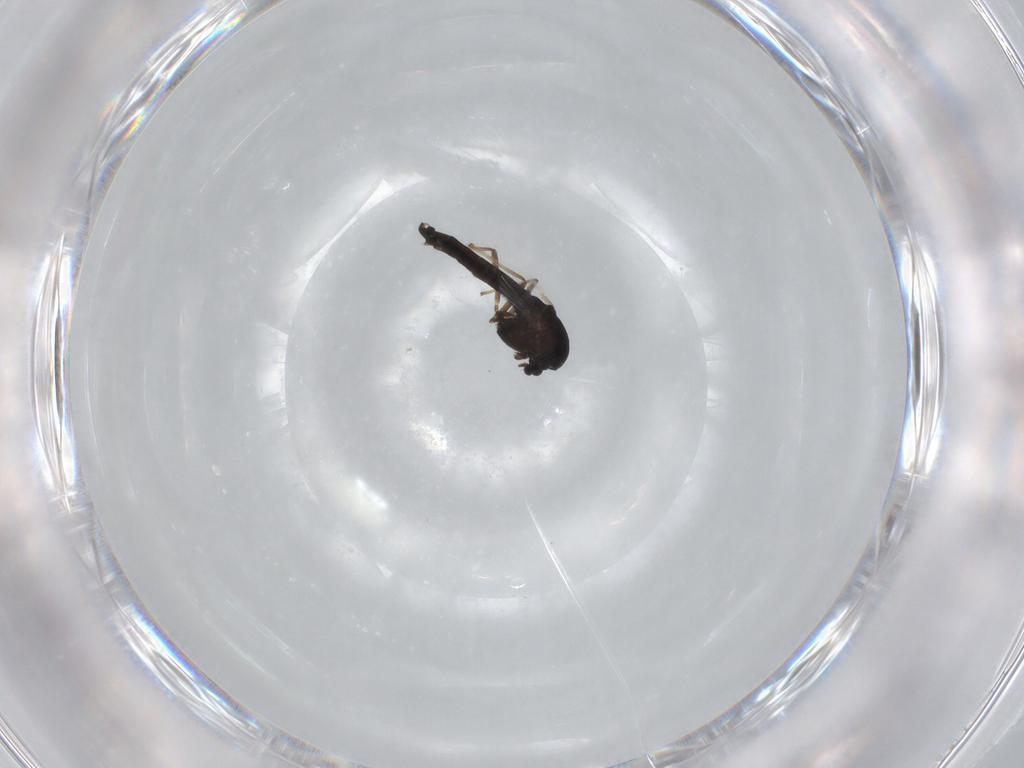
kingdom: Animalia
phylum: Arthropoda
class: Insecta
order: Diptera
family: Chironomidae
